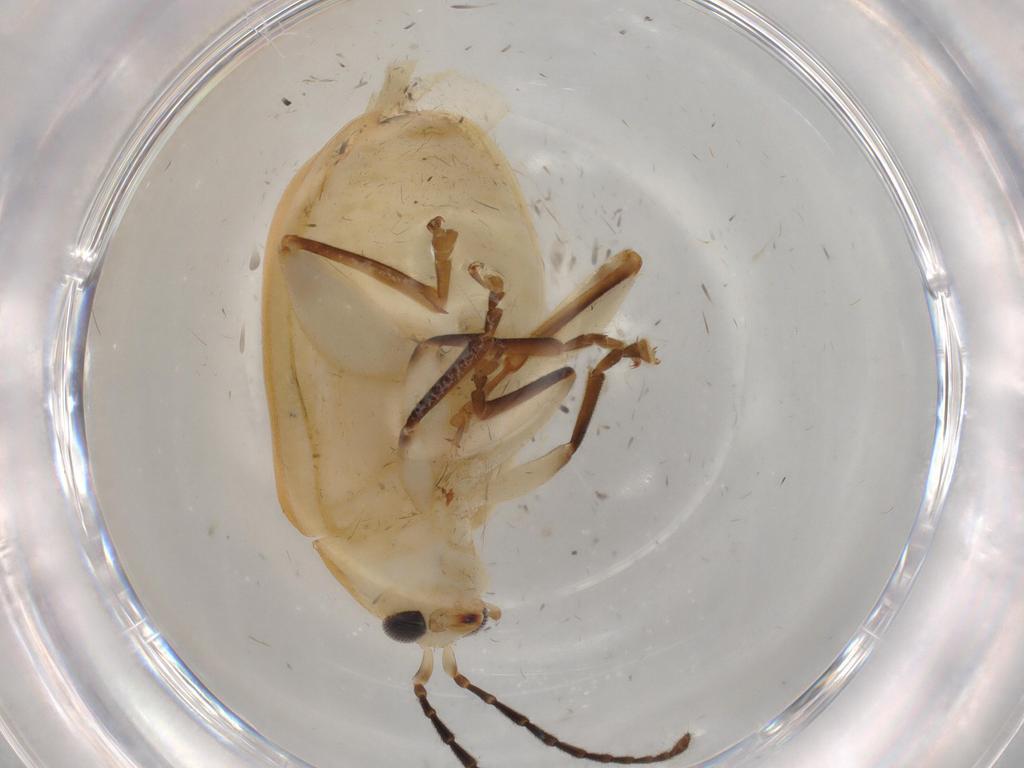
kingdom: Animalia
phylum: Arthropoda
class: Insecta
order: Coleoptera
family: Chrysomelidae
